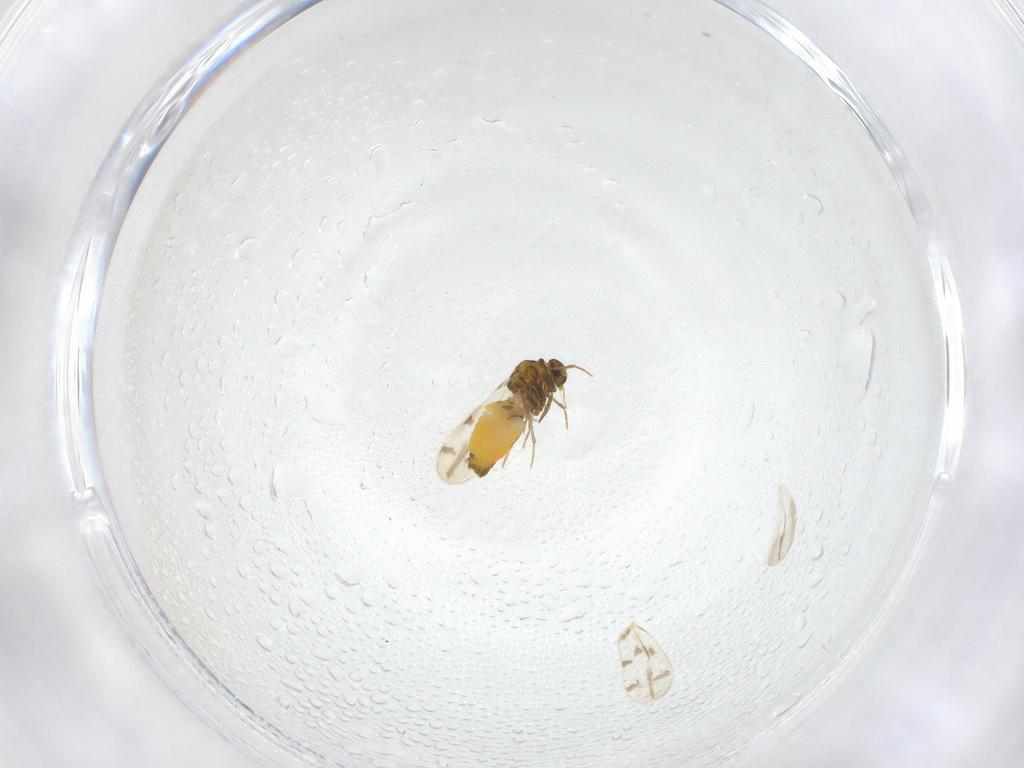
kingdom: Animalia
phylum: Arthropoda
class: Insecta
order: Hemiptera
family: Miridae
